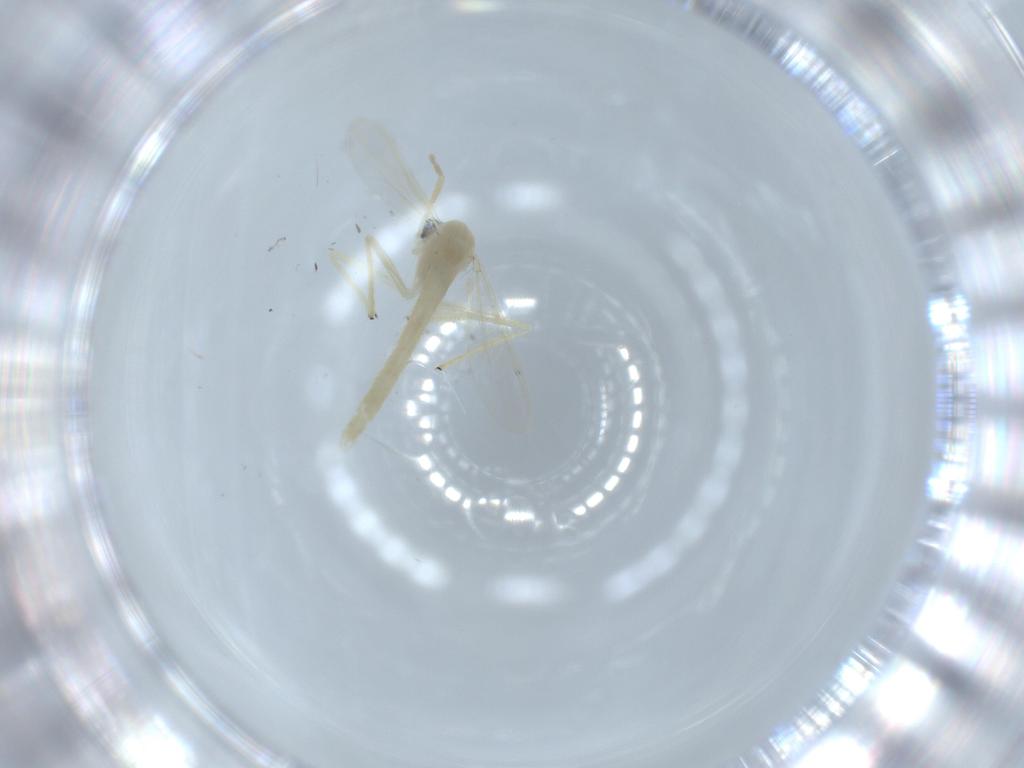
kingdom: Animalia
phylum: Arthropoda
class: Insecta
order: Diptera
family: Chironomidae
